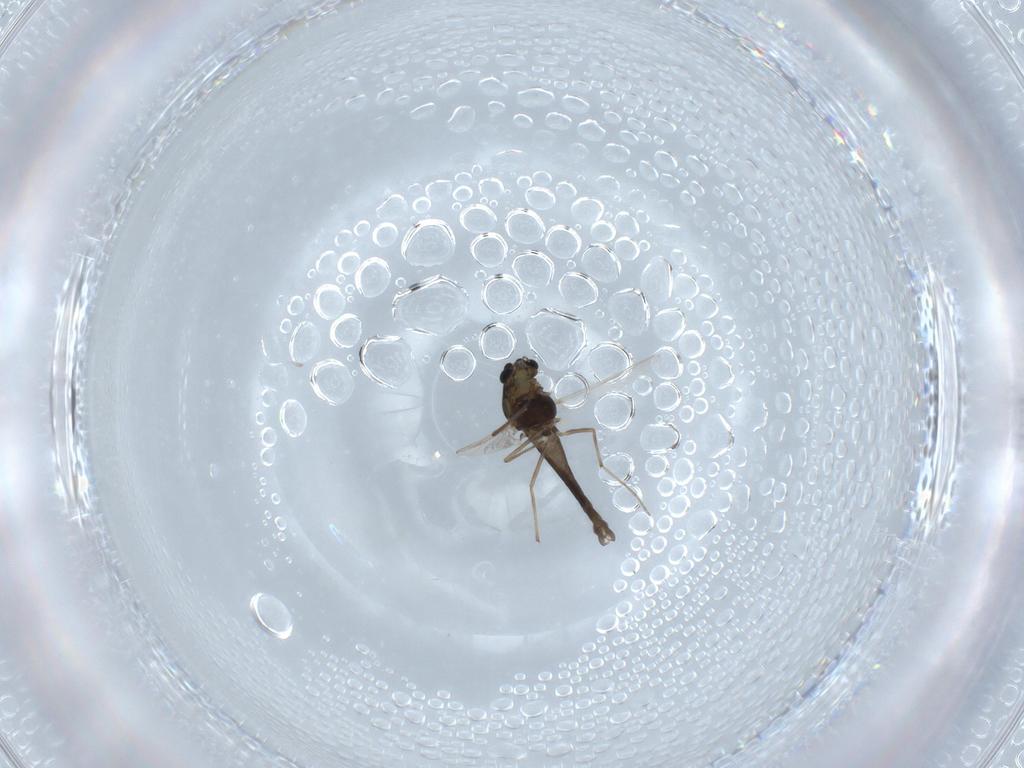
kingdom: Animalia
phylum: Arthropoda
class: Insecta
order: Diptera
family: Chironomidae
